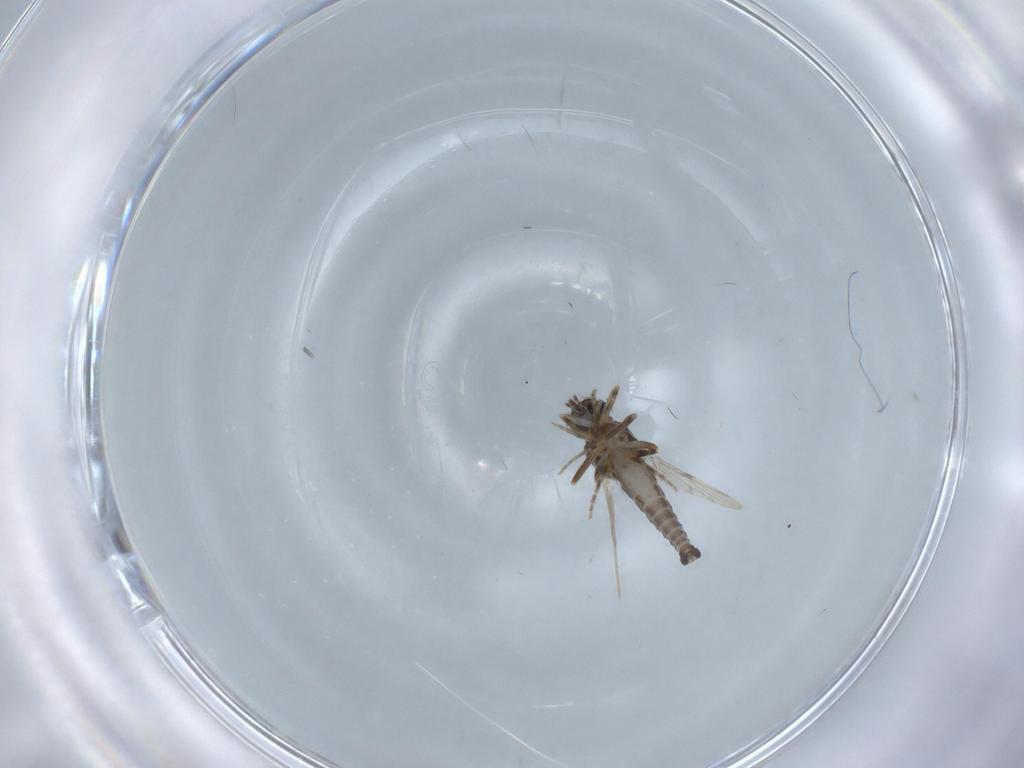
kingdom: Animalia
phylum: Arthropoda
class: Insecta
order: Diptera
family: Ceratopogonidae
